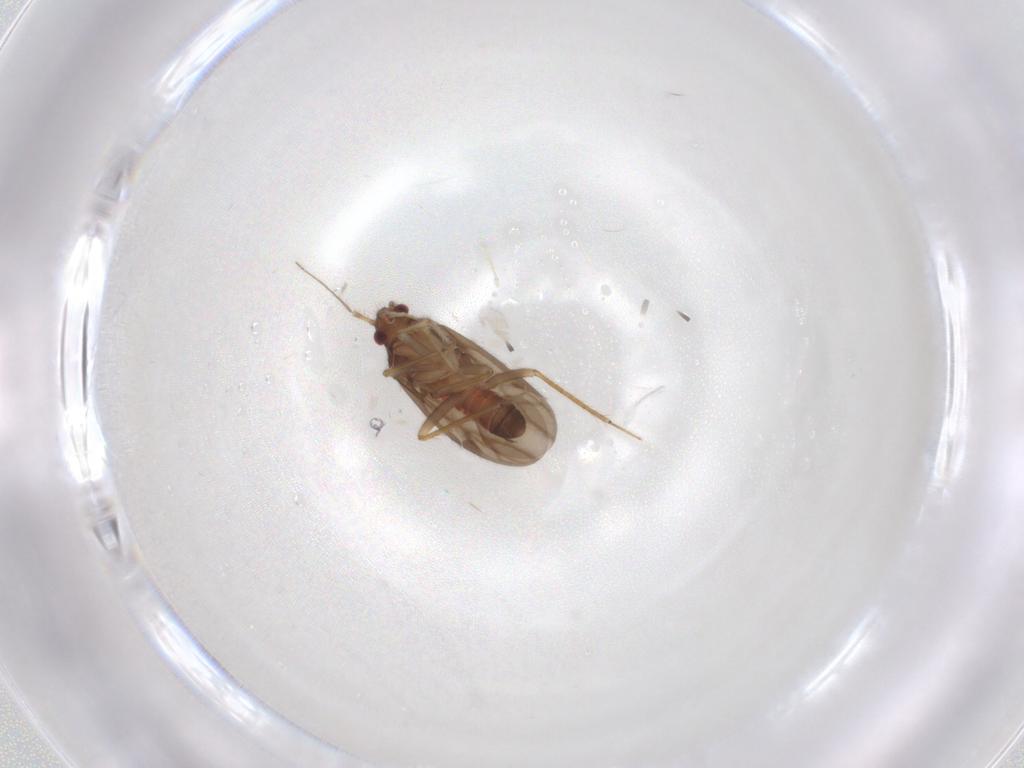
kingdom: Animalia
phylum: Arthropoda
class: Insecta
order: Hemiptera
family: Ceratocombidae
